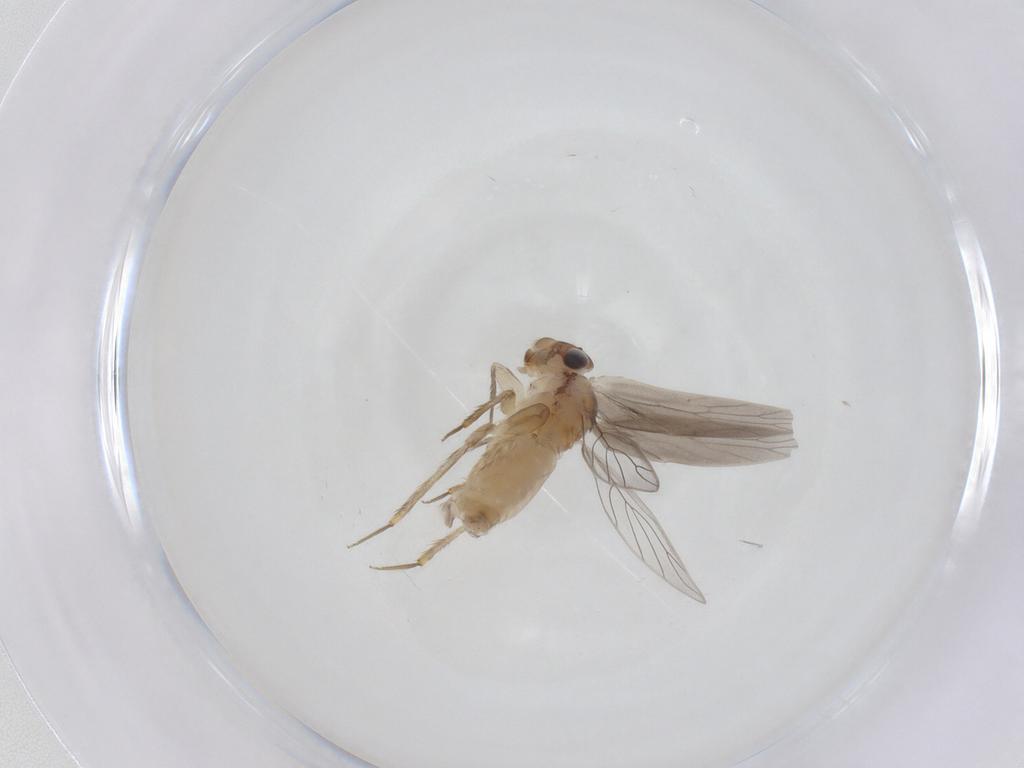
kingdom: Animalia
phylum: Arthropoda
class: Insecta
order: Psocodea
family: Lepidopsocidae
